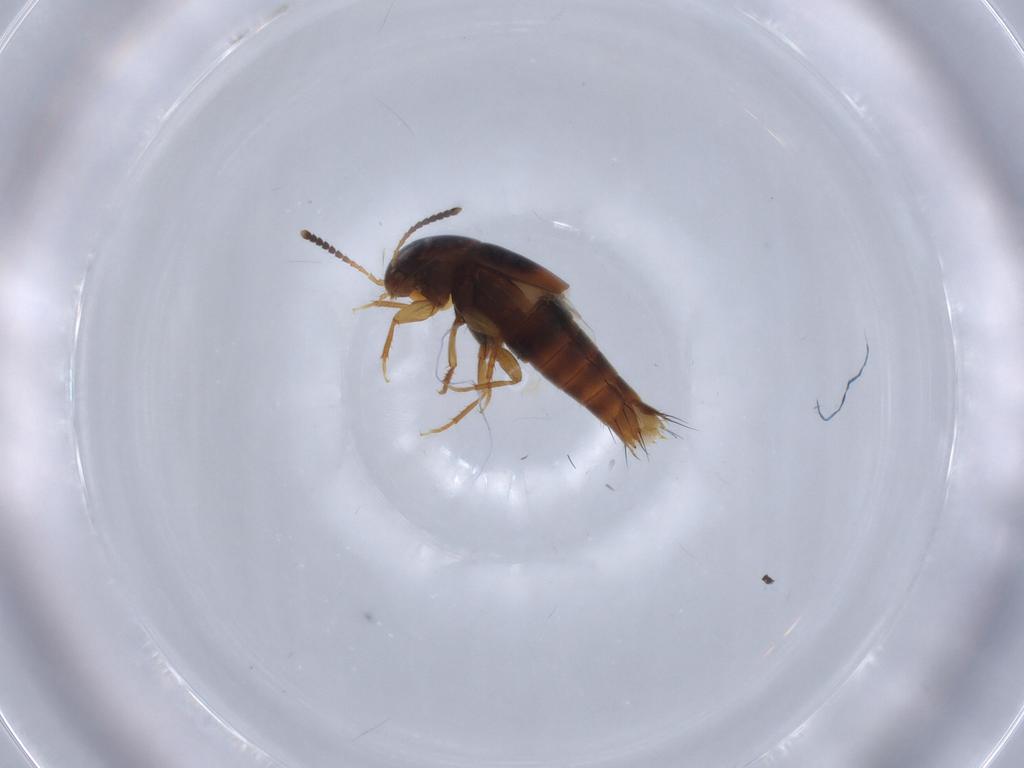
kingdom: Animalia
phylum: Arthropoda
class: Insecta
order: Coleoptera
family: Staphylinidae
